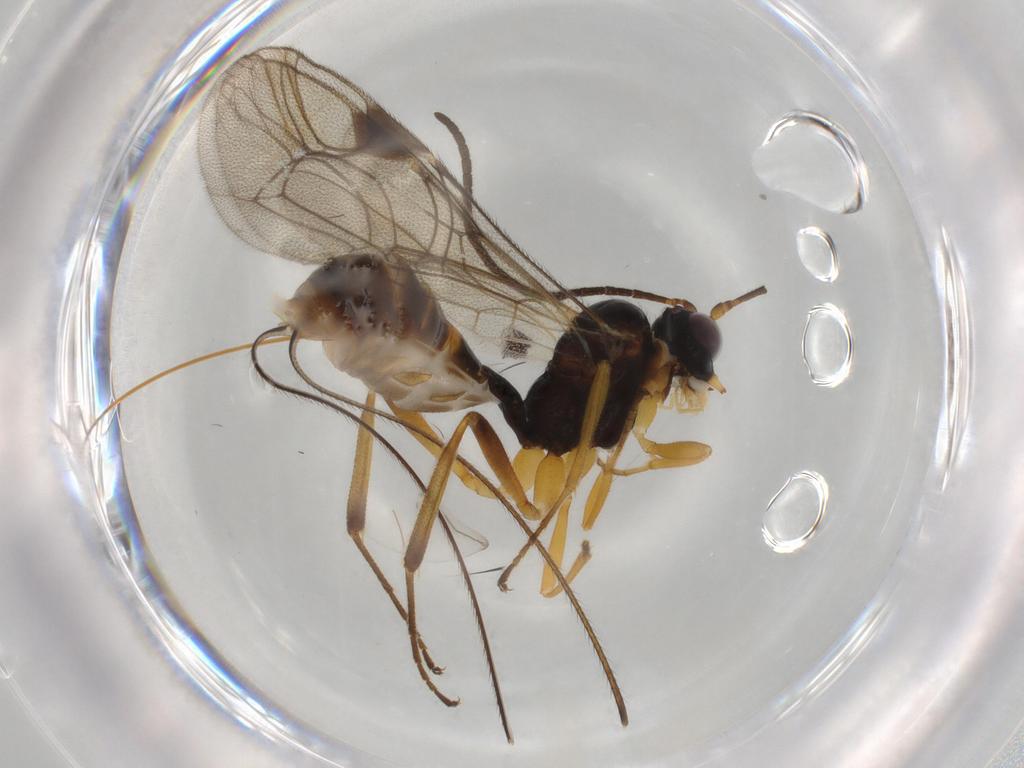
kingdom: Animalia
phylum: Arthropoda
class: Insecta
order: Hymenoptera
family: Ichneumonidae
